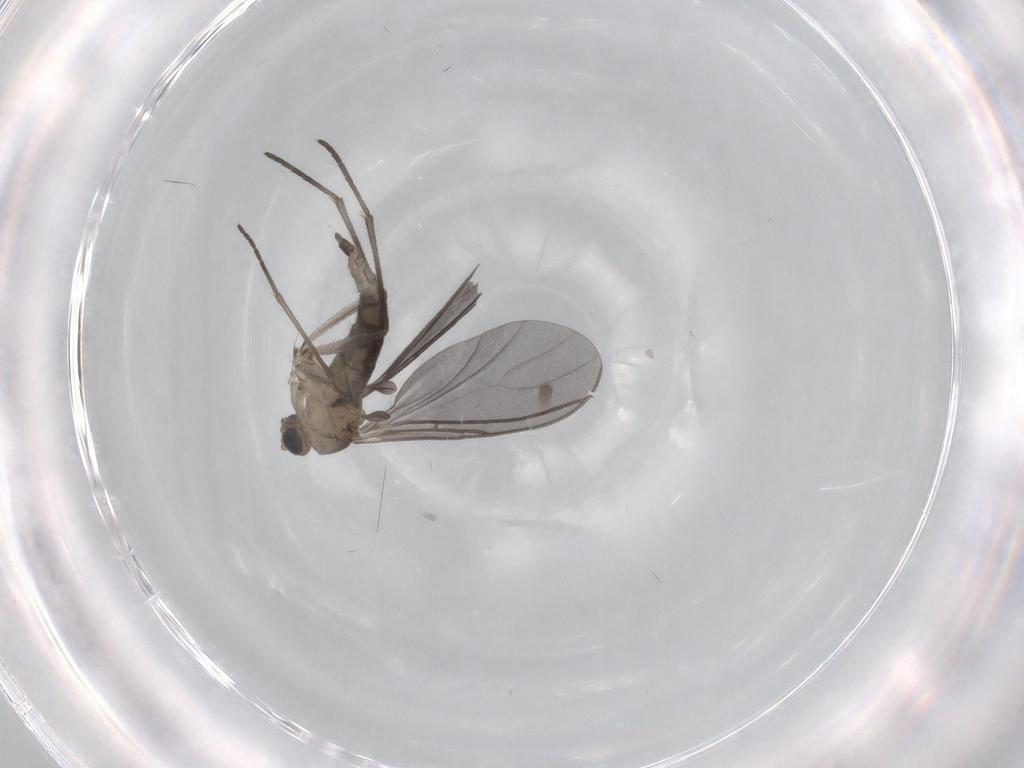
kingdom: Animalia
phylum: Arthropoda
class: Insecta
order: Diptera
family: Sciaridae
